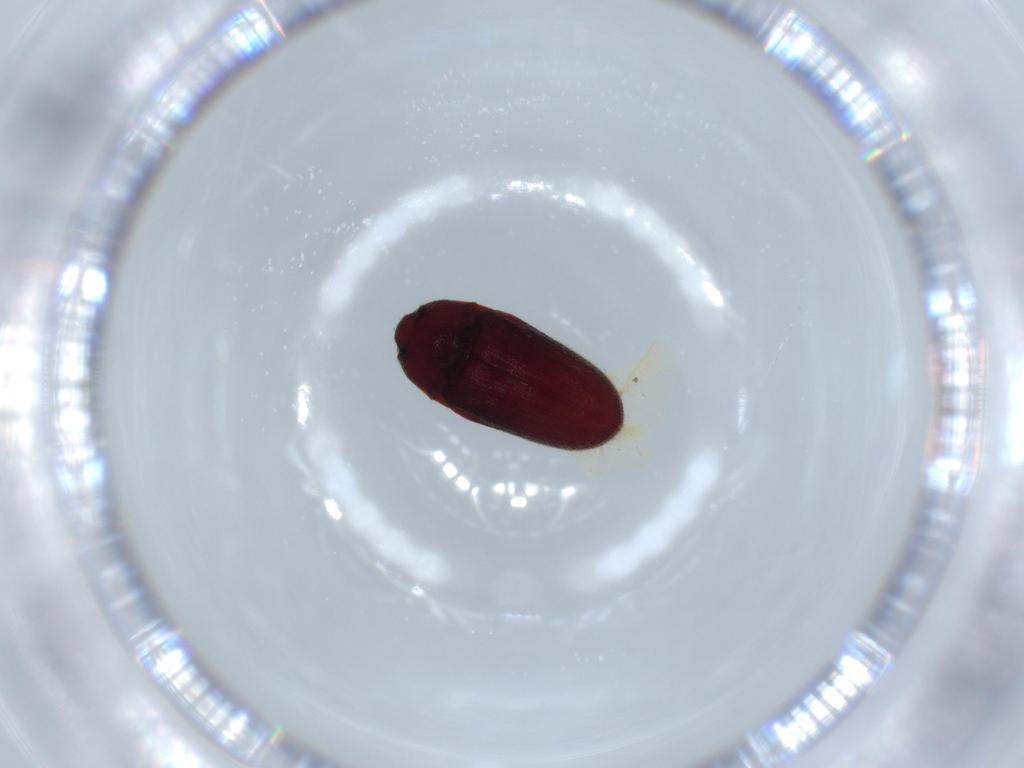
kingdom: Animalia
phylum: Arthropoda
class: Insecta
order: Coleoptera
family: Throscidae
